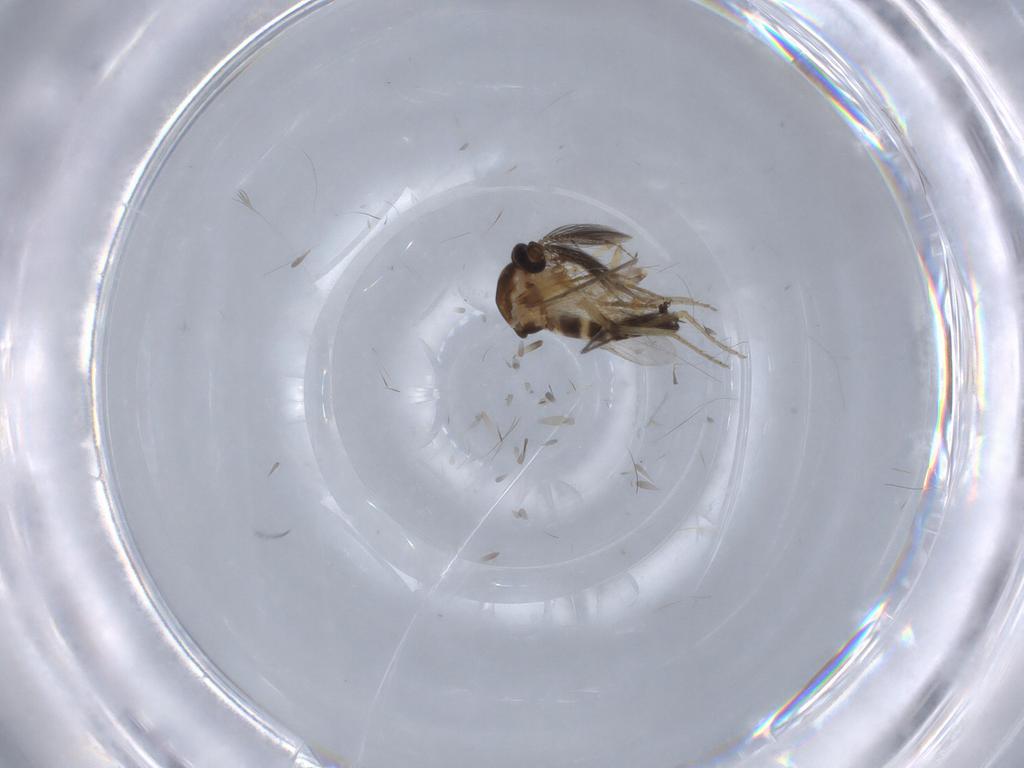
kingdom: Animalia
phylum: Arthropoda
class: Insecta
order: Diptera
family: Ceratopogonidae
